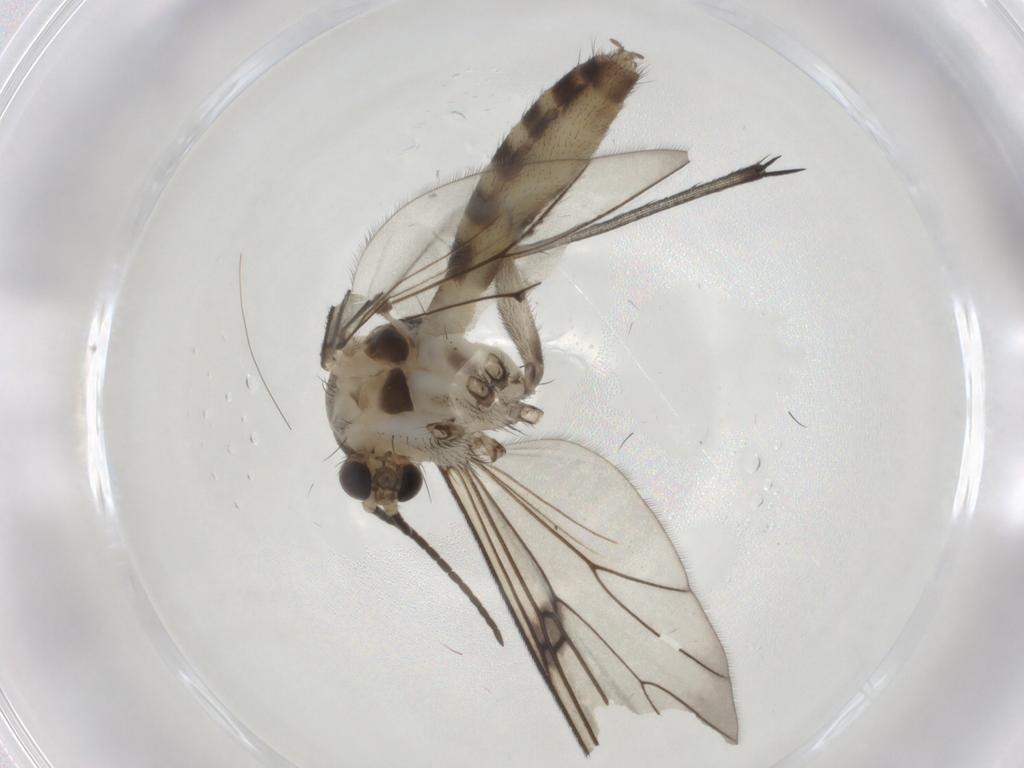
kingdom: Animalia
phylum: Arthropoda
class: Insecta
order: Diptera
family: Mycetophilidae
